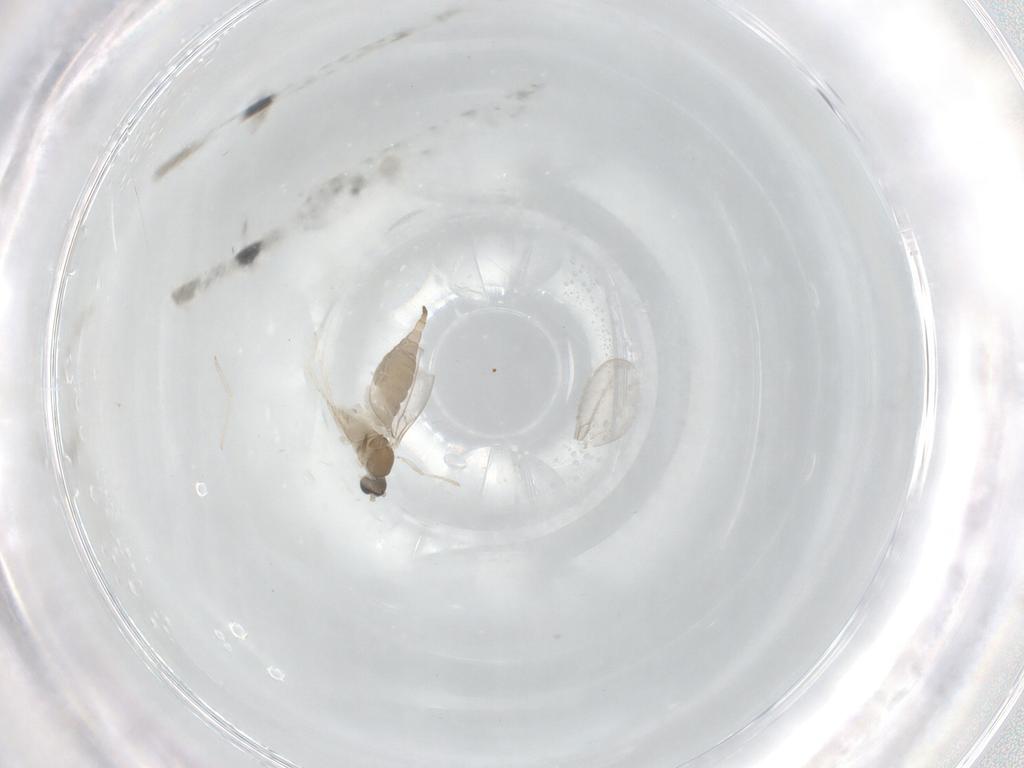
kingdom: Animalia
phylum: Arthropoda
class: Insecta
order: Diptera
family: Cecidomyiidae
